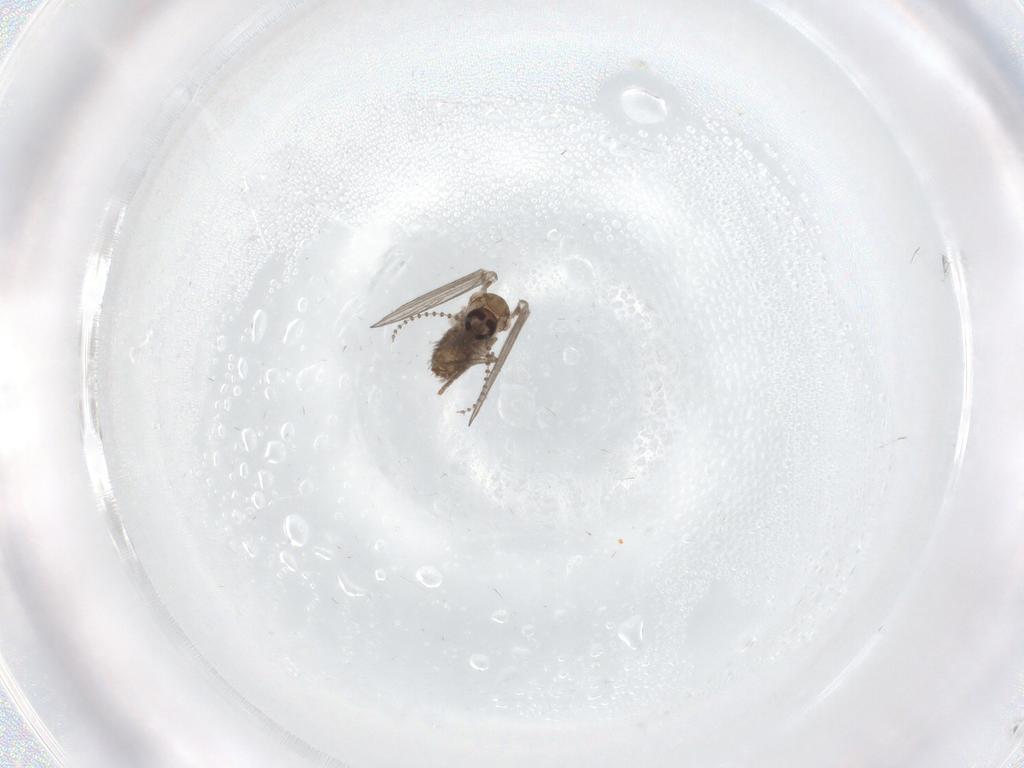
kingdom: Animalia
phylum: Arthropoda
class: Insecta
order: Diptera
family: Psychodidae
